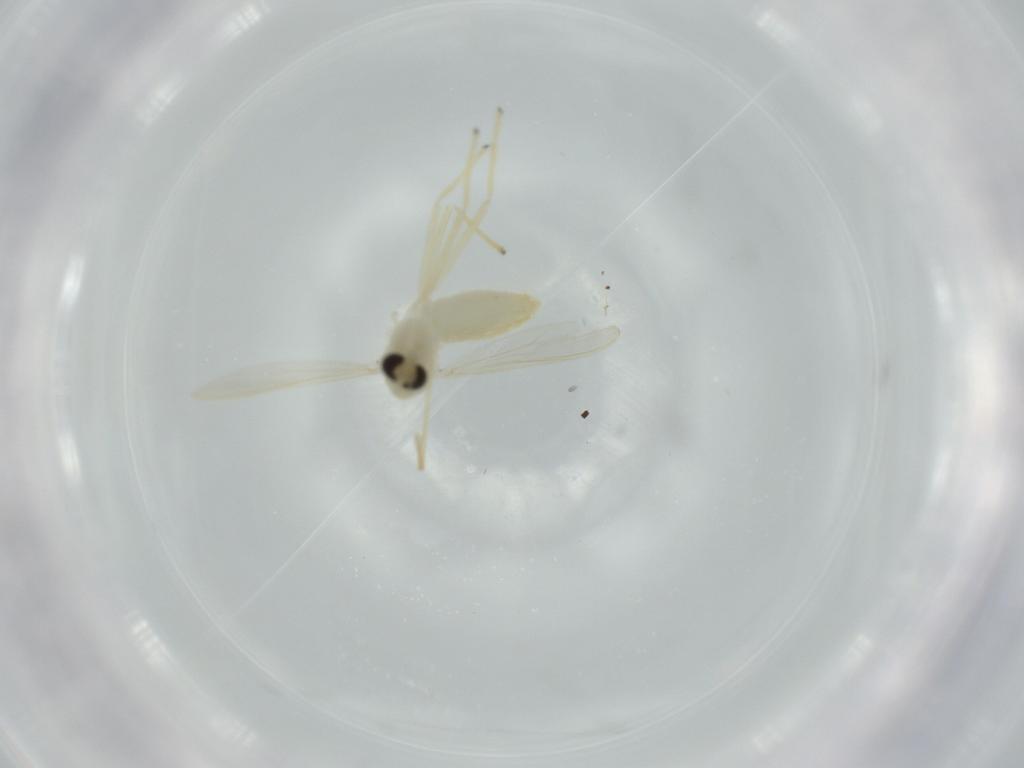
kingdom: Animalia
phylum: Arthropoda
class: Insecta
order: Diptera
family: Chironomidae
